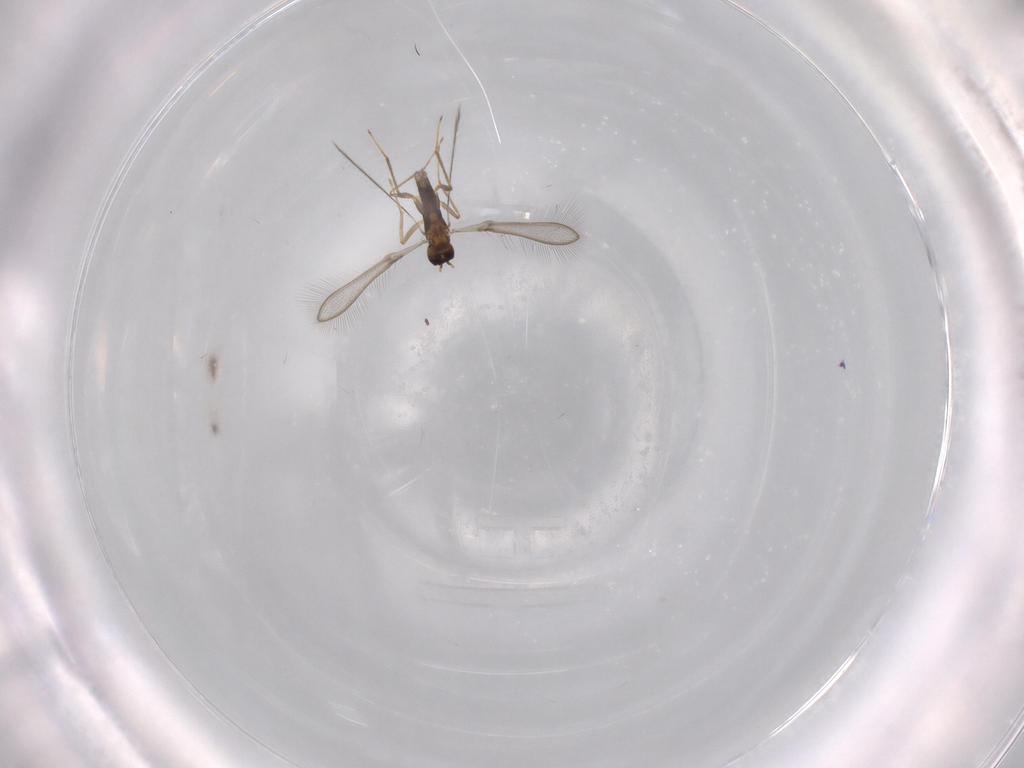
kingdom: Animalia
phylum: Arthropoda
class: Insecta
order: Hymenoptera
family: Mymaridae
